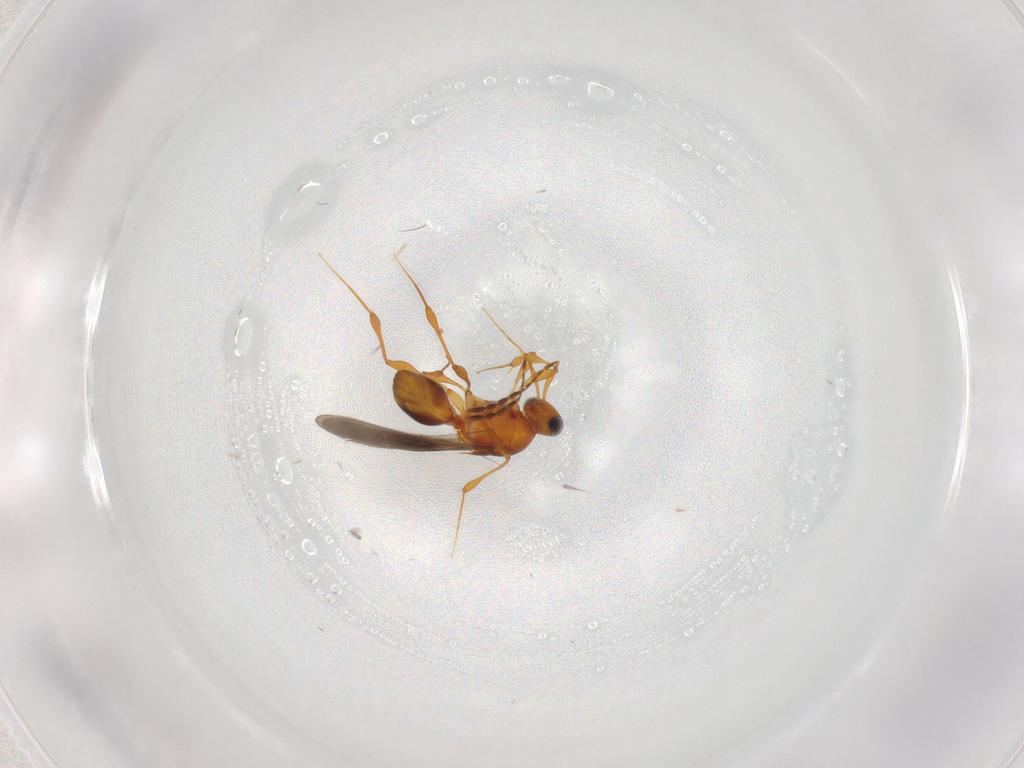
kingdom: Animalia
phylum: Arthropoda
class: Insecta
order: Hymenoptera
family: Platygastridae
